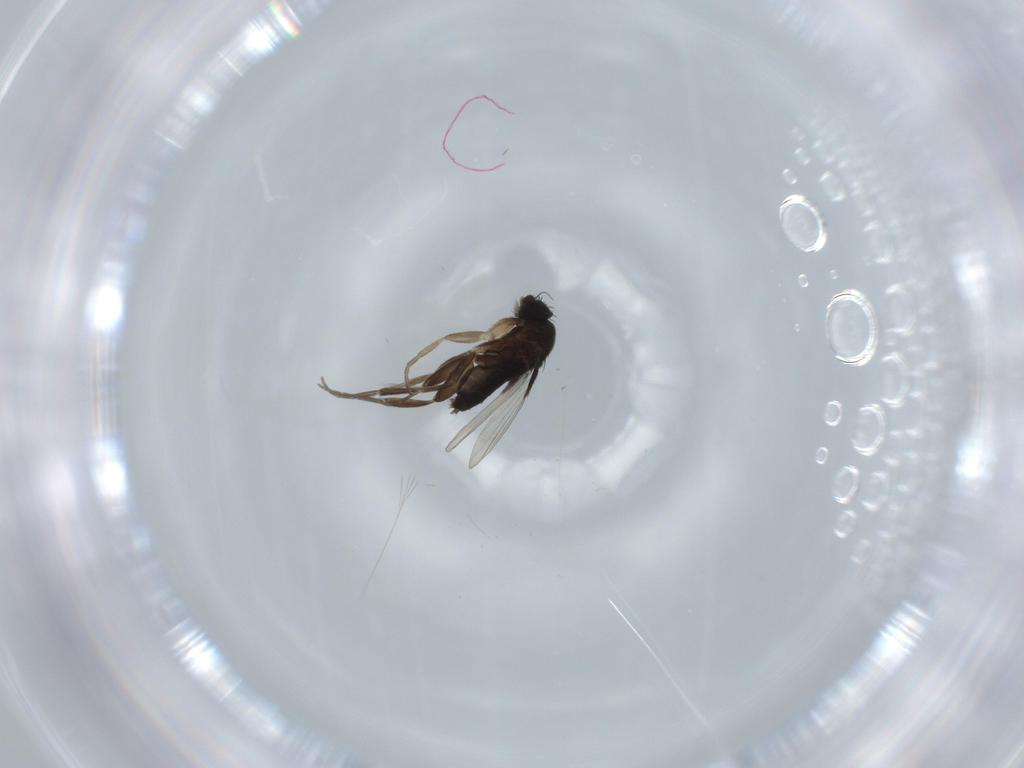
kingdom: Animalia
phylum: Arthropoda
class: Insecta
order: Diptera
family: Phoridae
